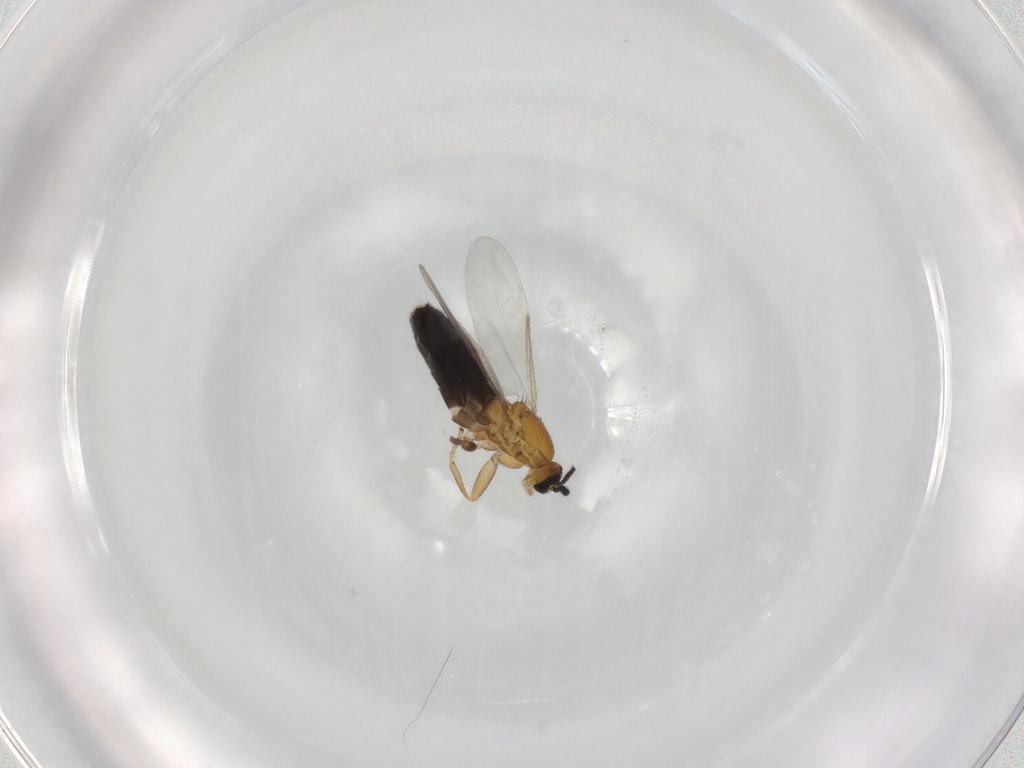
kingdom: Animalia
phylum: Arthropoda
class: Insecta
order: Diptera
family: Scatopsidae
